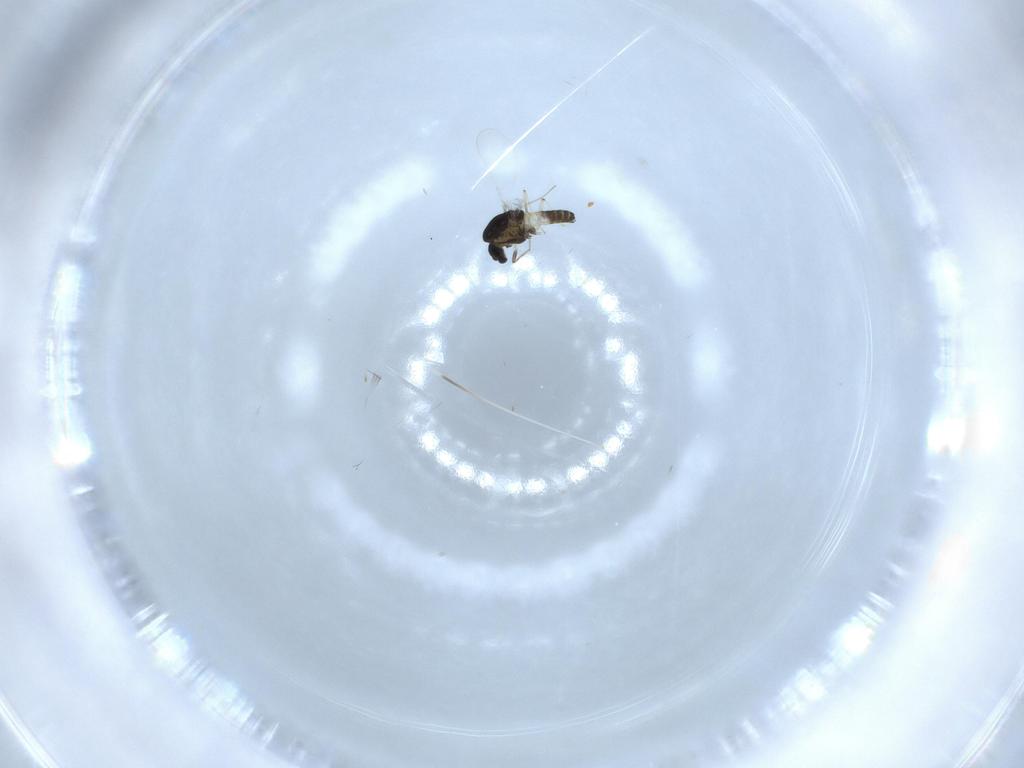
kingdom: Animalia
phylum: Arthropoda
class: Insecta
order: Diptera
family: Chironomidae
